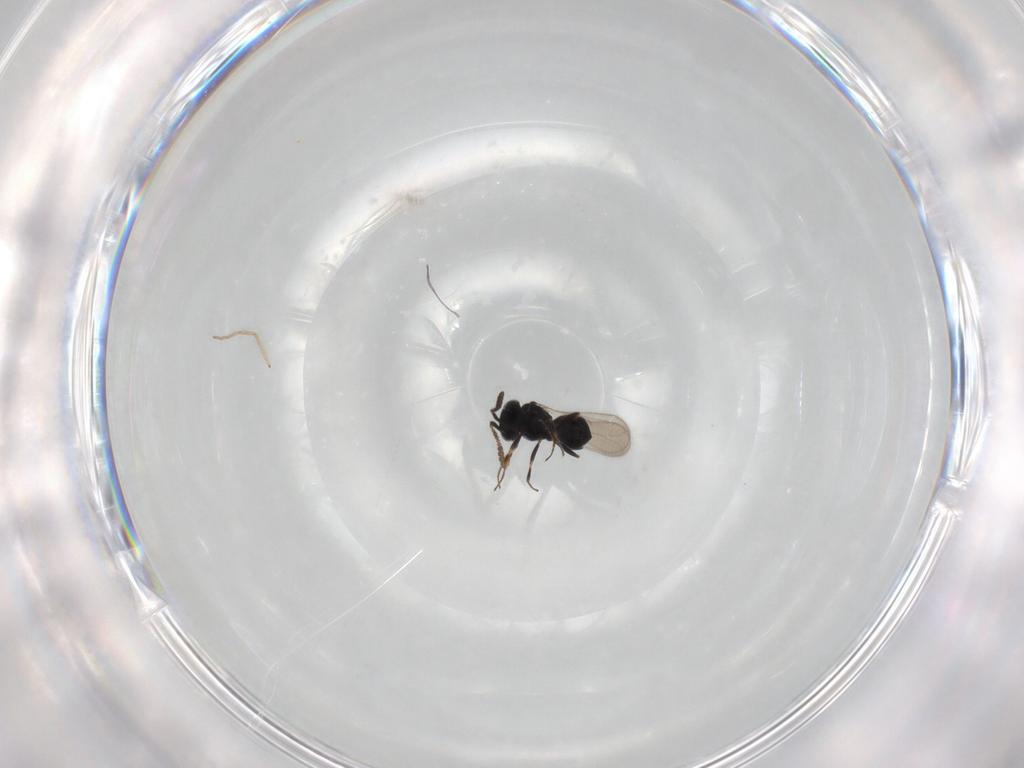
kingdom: Animalia
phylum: Arthropoda
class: Insecta
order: Hymenoptera
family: Scelionidae
